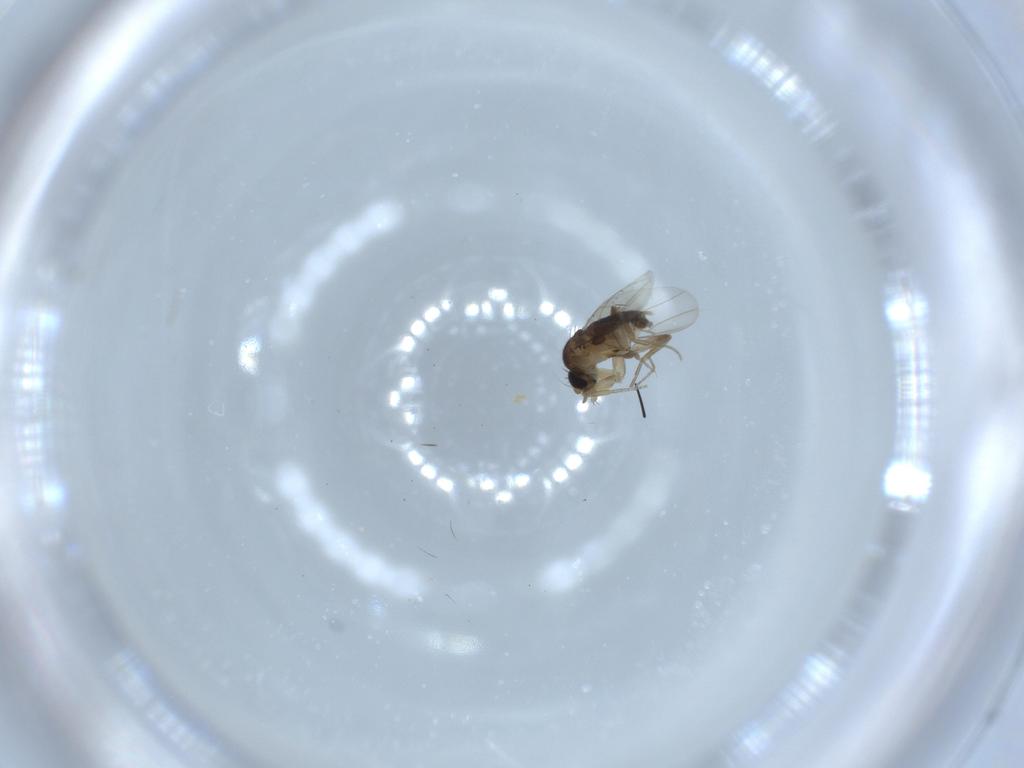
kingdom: Animalia
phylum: Arthropoda
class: Insecta
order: Diptera
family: Phoridae
